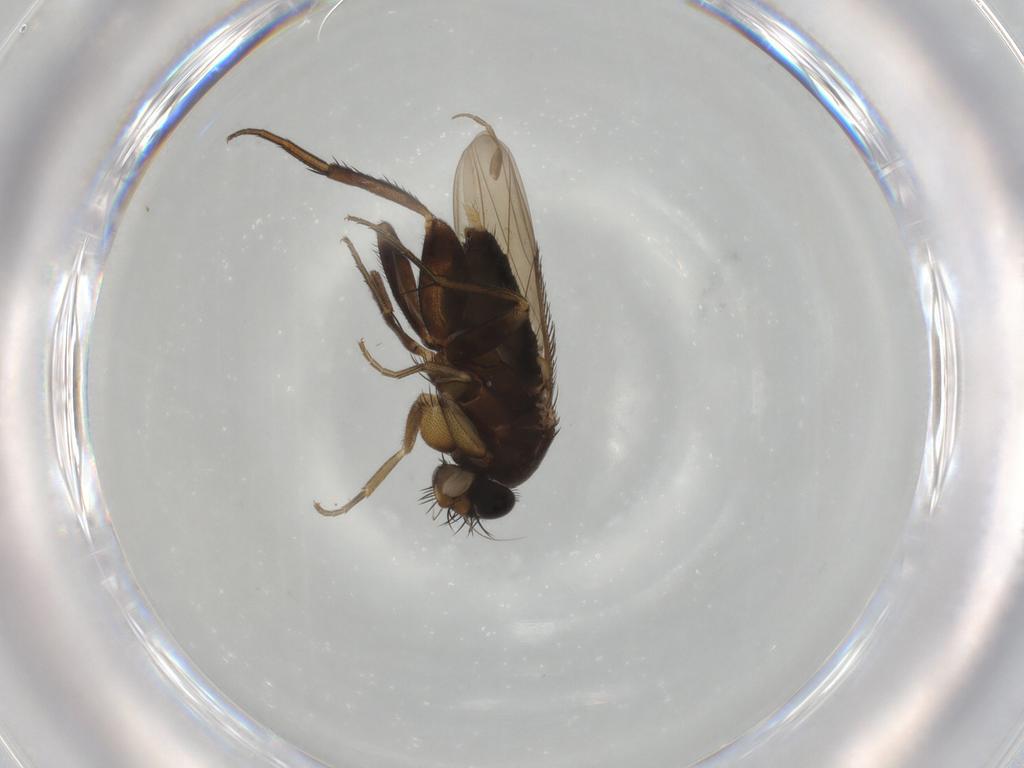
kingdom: Animalia
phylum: Arthropoda
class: Insecta
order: Diptera
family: Phoridae
